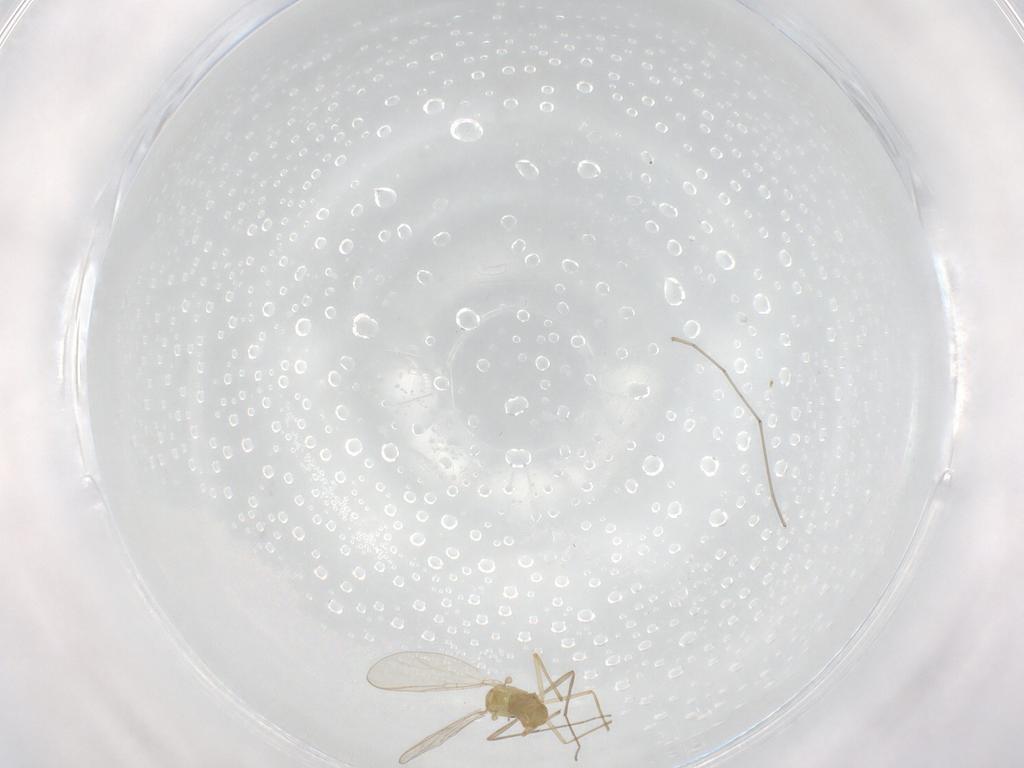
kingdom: Animalia
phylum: Arthropoda
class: Insecta
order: Diptera
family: Chironomidae
